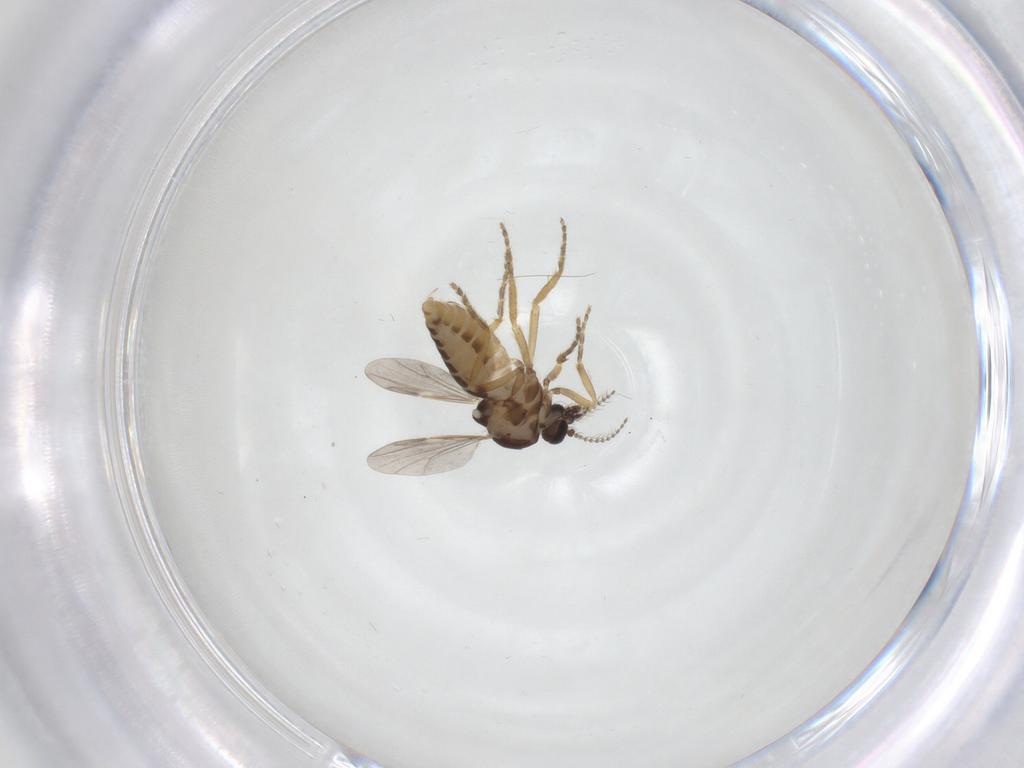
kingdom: Animalia
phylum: Arthropoda
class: Insecta
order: Diptera
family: Ceratopogonidae
